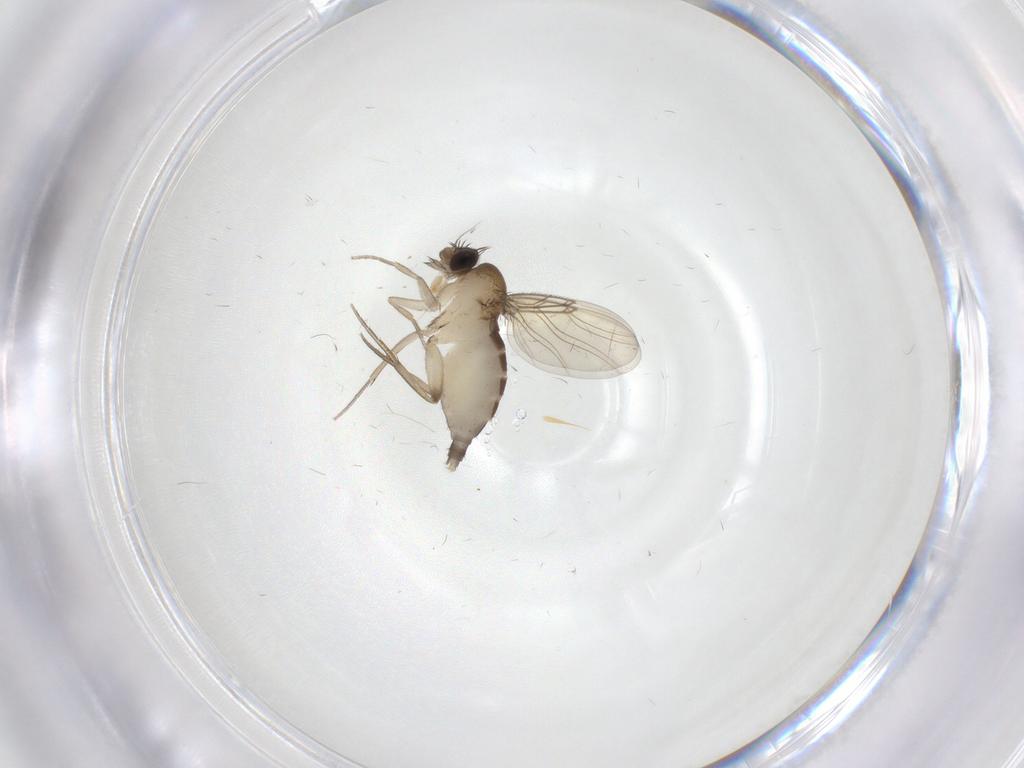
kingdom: Animalia
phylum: Arthropoda
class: Insecta
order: Diptera
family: Phoridae
